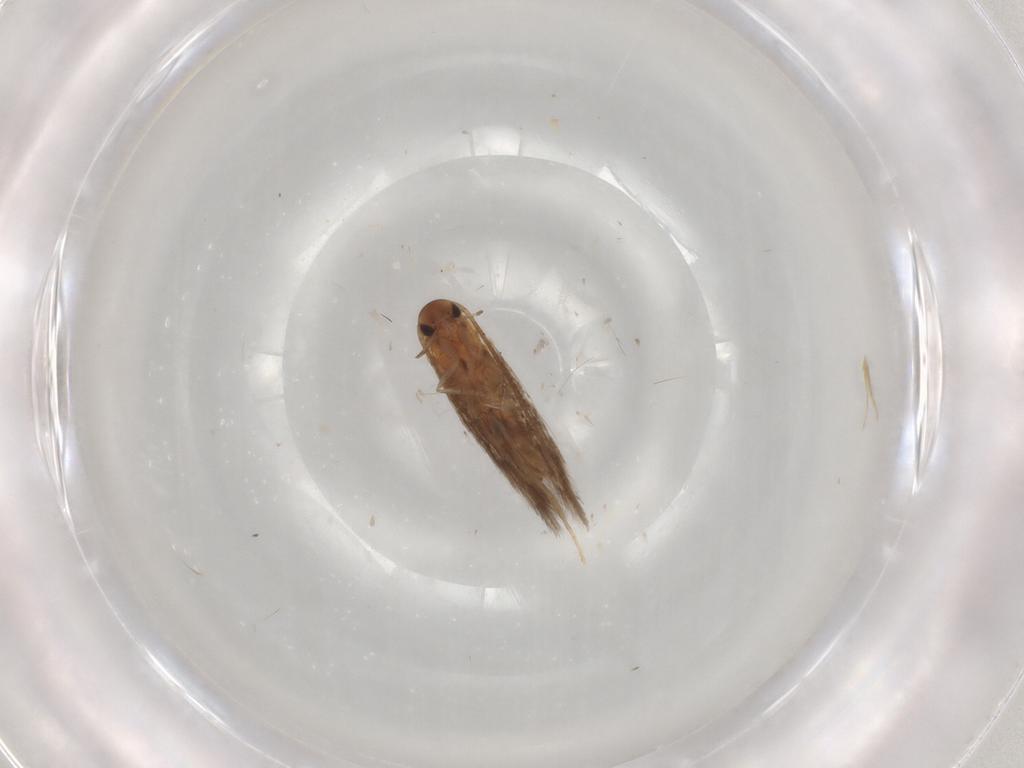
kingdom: Animalia
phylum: Arthropoda
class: Insecta
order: Lepidoptera
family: Elachistidae
